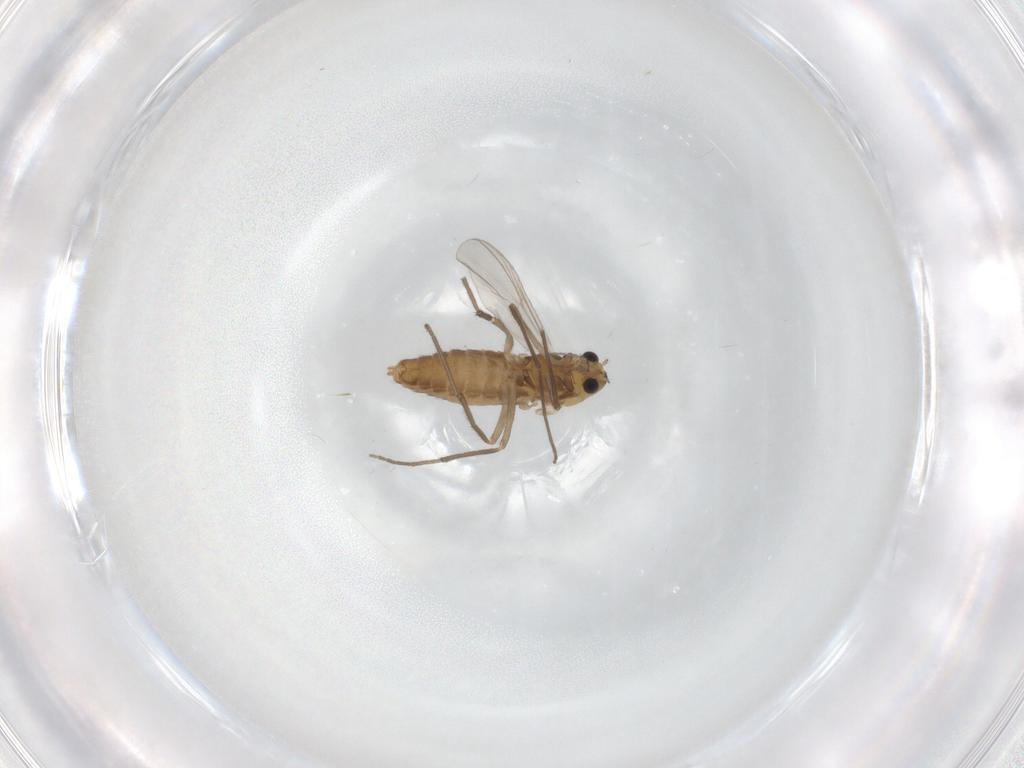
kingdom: Animalia
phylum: Arthropoda
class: Insecta
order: Diptera
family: Chironomidae
